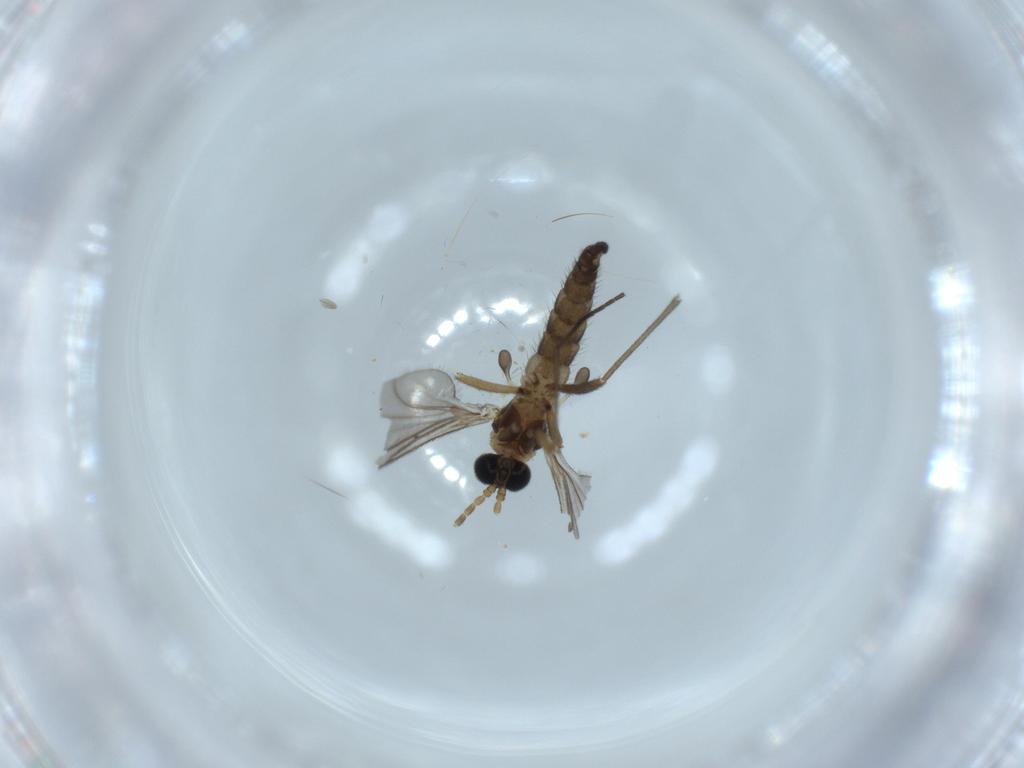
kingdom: Animalia
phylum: Arthropoda
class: Insecta
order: Diptera
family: Sciaridae
